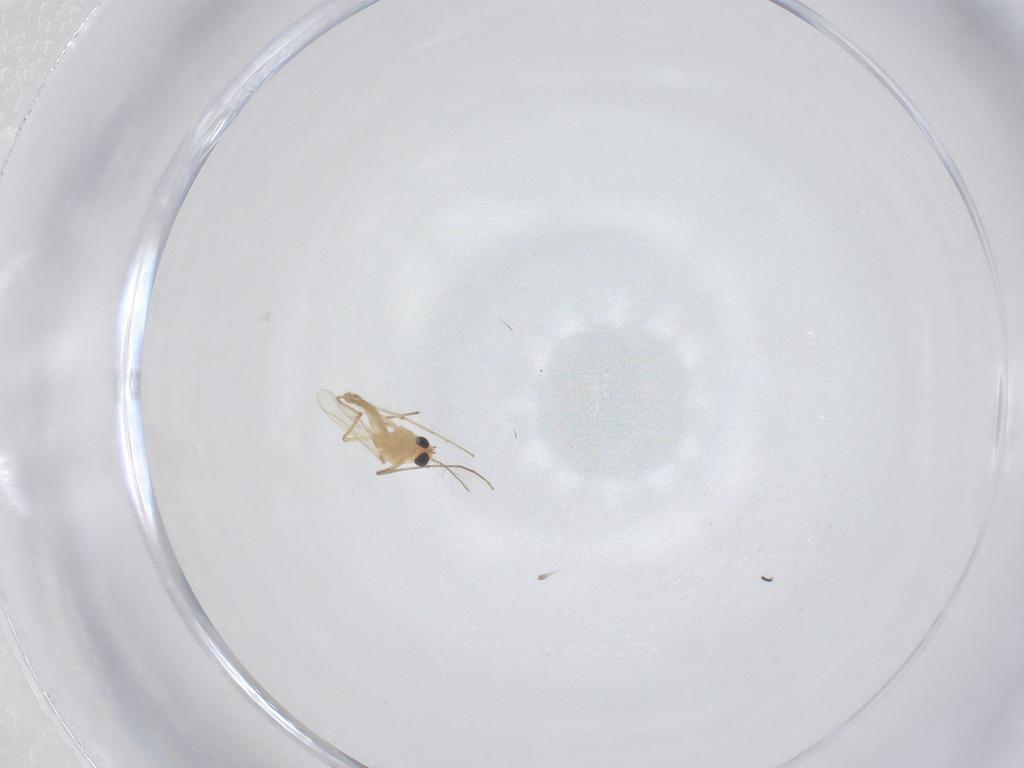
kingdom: Animalia
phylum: Arthropoda
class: Insecta
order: Diptera
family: Chironomidae
